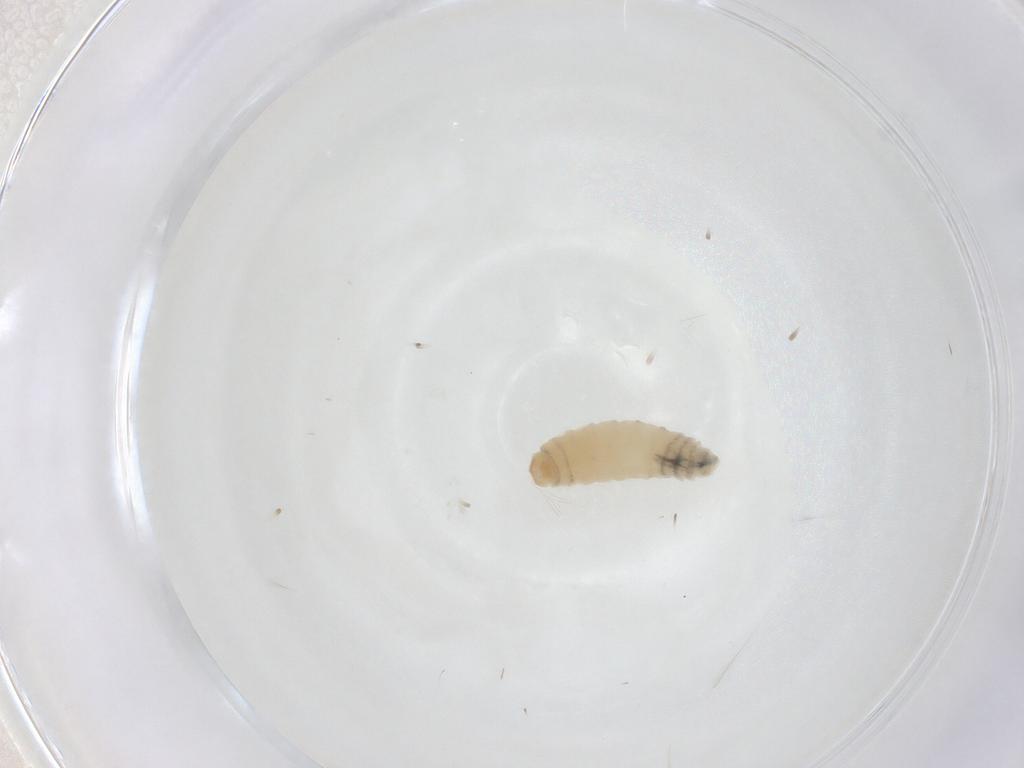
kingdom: Animalia
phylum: Arthropoda
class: Insecta
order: Diptera
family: Sarcophagidae
